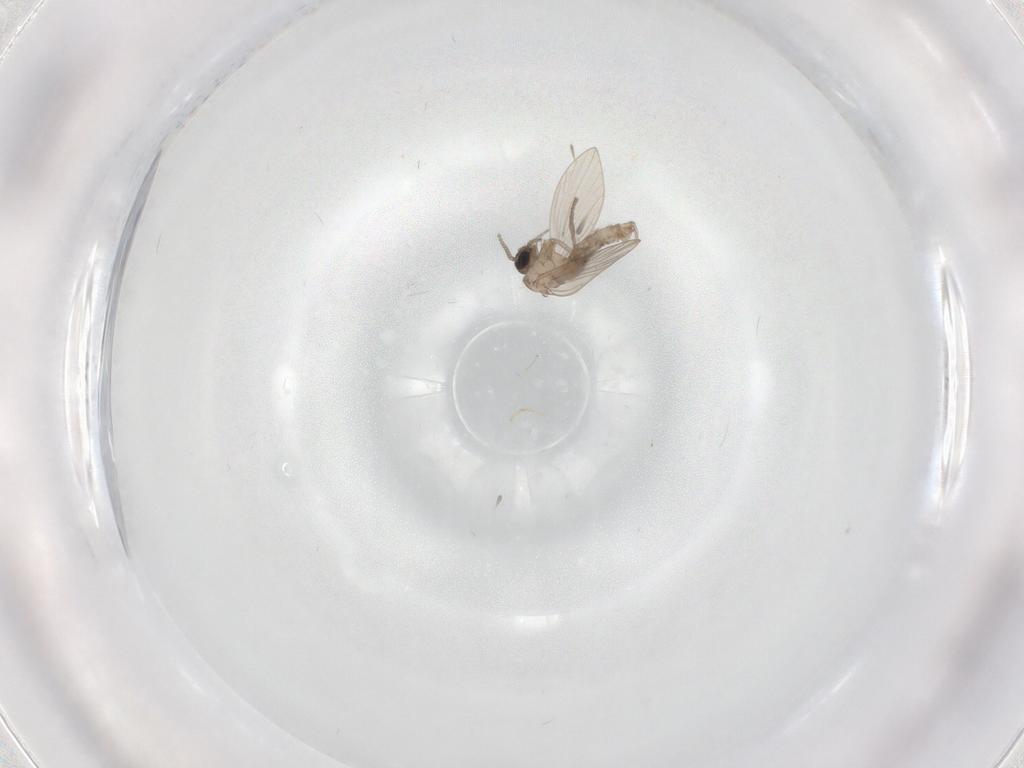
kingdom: Animalia
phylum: Arthropoda
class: Insecta
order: Diptera
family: Psychodidae
